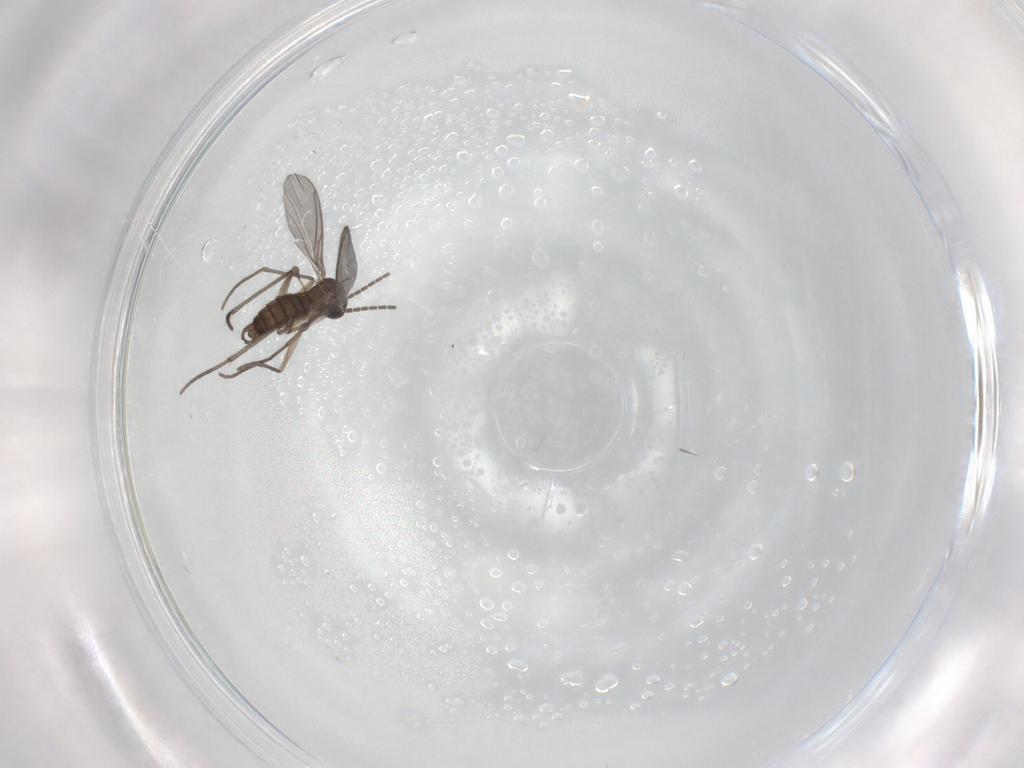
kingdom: Animalia
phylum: Arthropoda
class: Insecta
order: Diptera
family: Sciaridae
